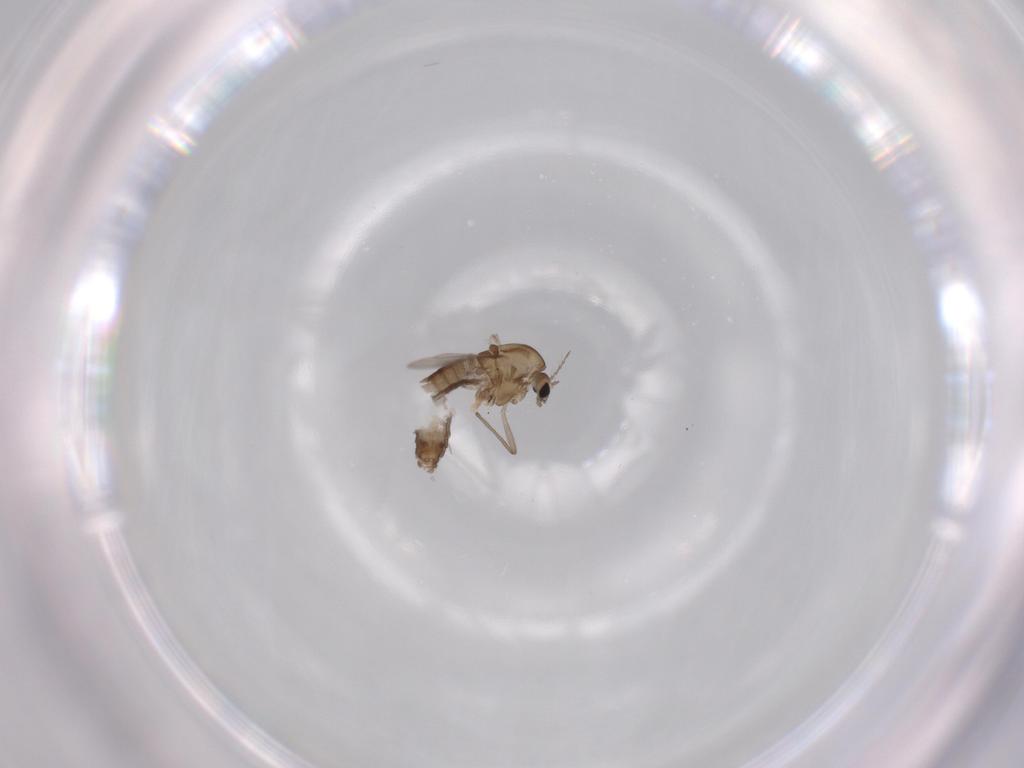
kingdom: Animalia
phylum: Arthropoda
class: Insecta
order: Diptera
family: Chironomidae
